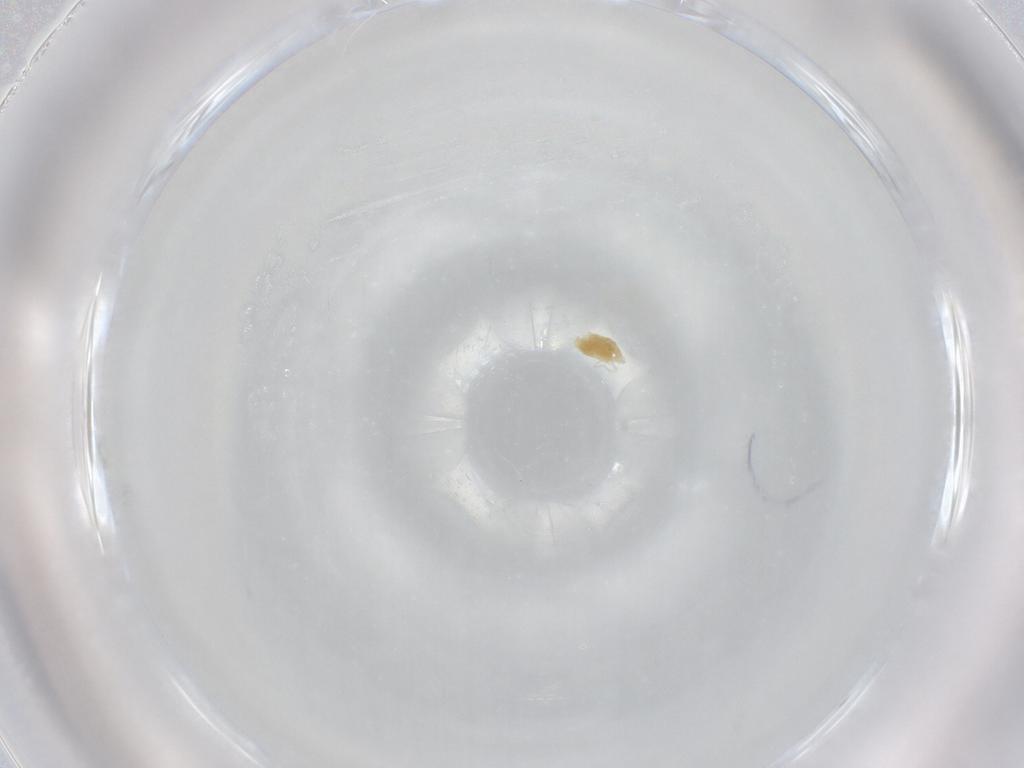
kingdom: Animalia
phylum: Arthropoda
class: Arachnida
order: Trombidiformes
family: Eupodidae
